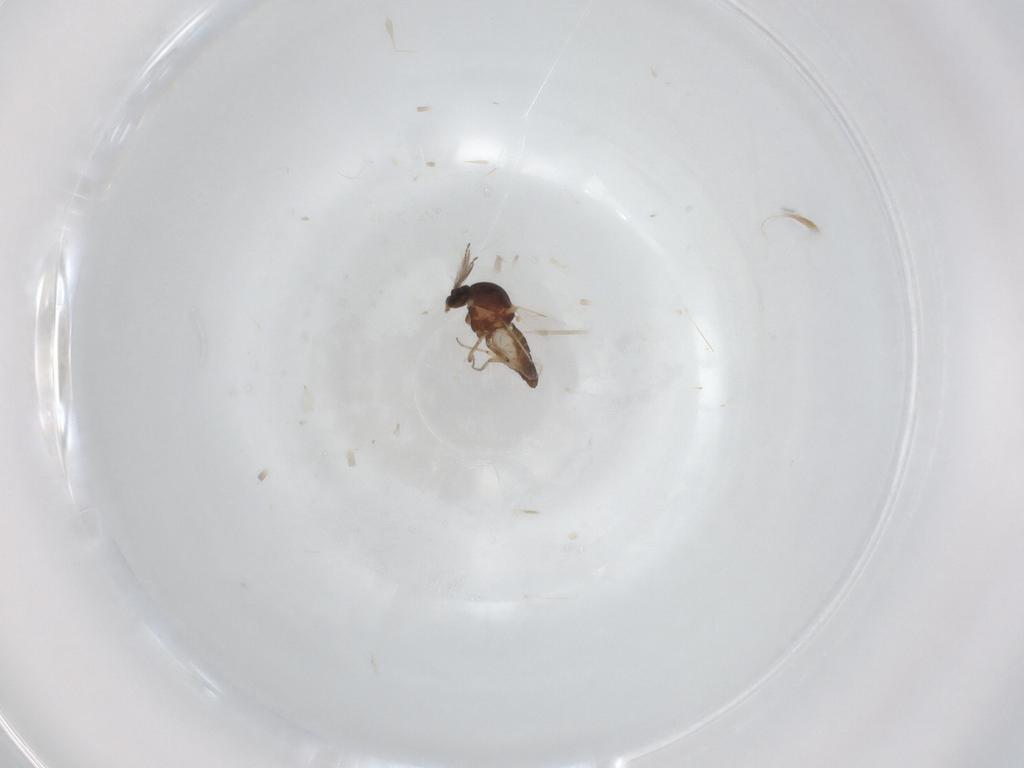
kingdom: Animalia
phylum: Arthropoda
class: Insecta
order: Diptera
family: Ceratopogonidae
